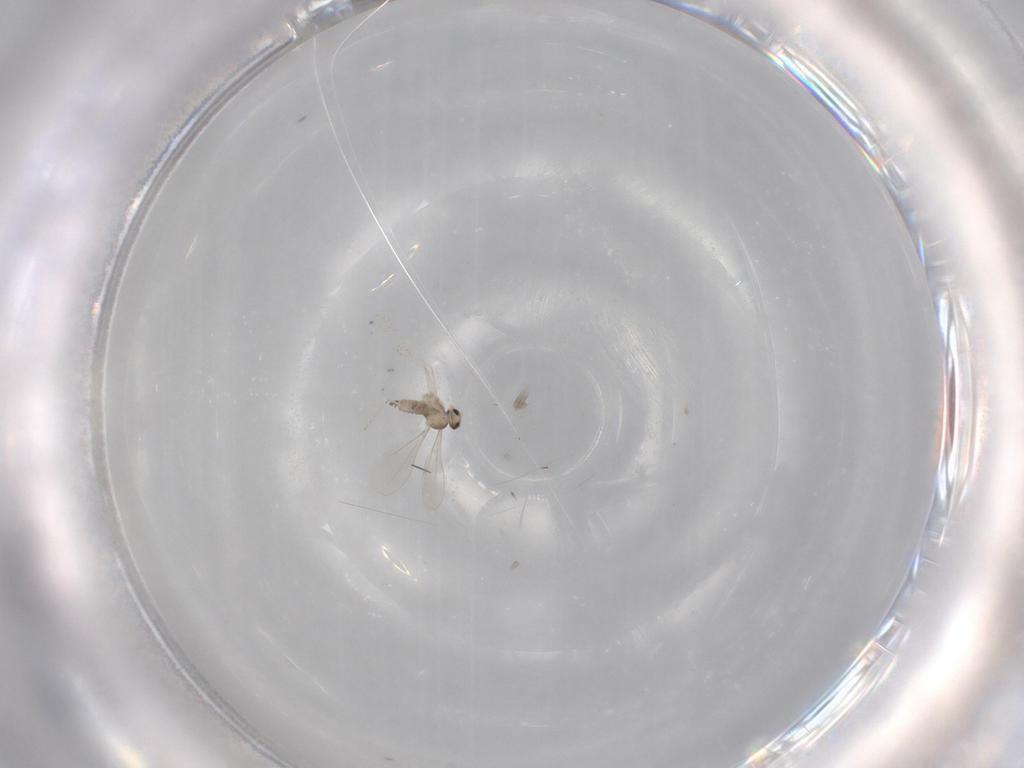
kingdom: Animalia
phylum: Arthropoda
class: Insecta
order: Diptera
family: Cecidomyiidae
